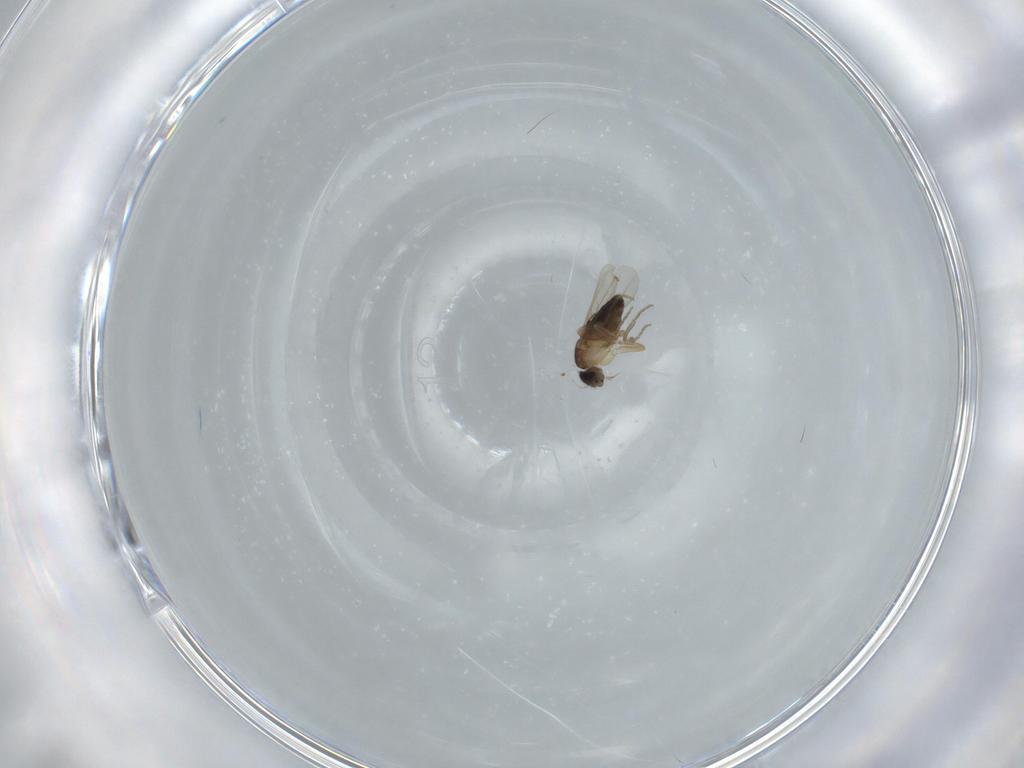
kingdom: Animalia
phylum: Arthropoda
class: Insecta
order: Diptera
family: Phoridae
